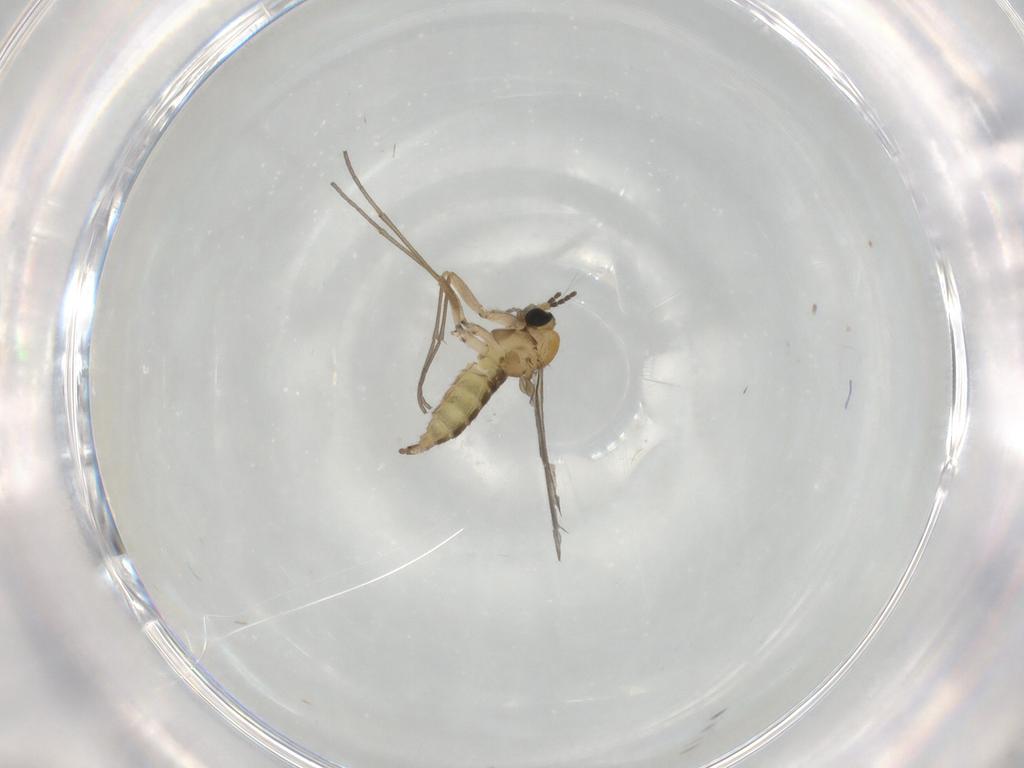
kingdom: Animalia
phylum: Arthropoda
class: Insecta
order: Diptera
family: Sciaridae
